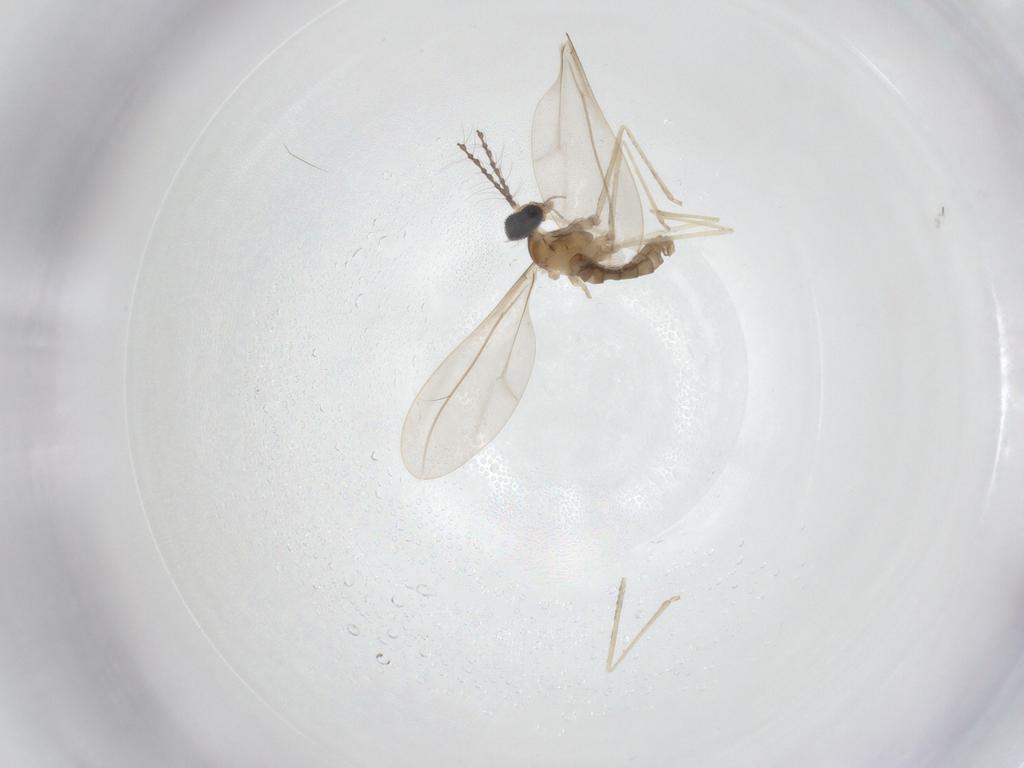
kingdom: Animalia
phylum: Arthropoda
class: Insecta
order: Diptera
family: Cecidomyiidae
